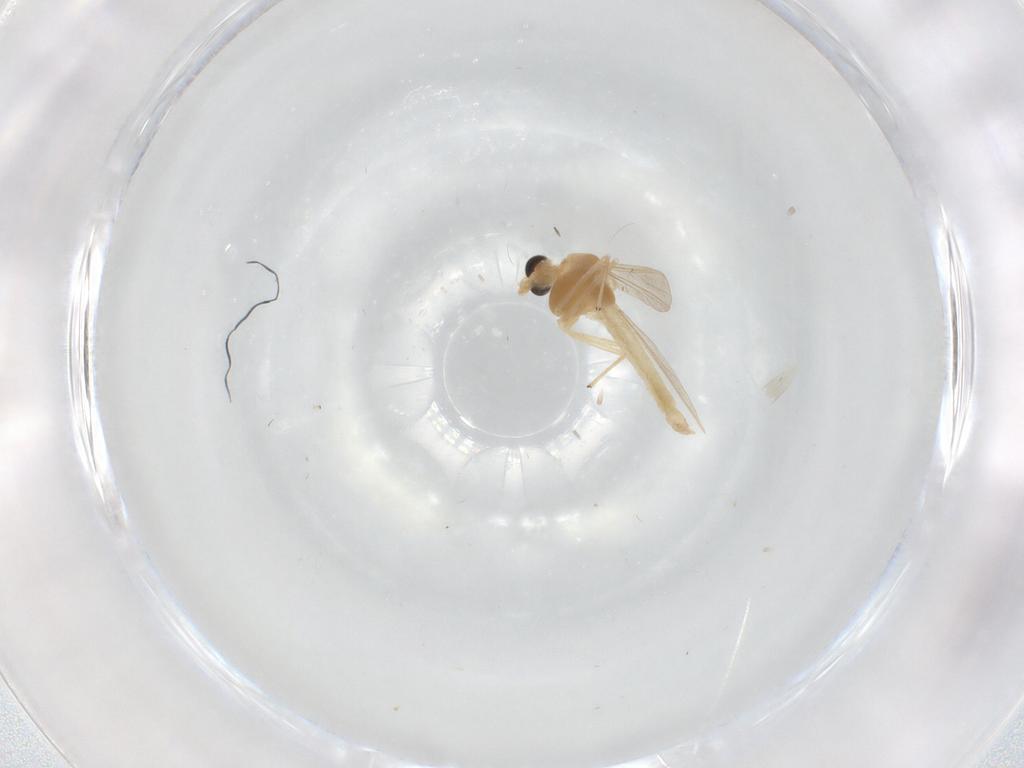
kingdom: Animalia
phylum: Arthropoda
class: Insecta
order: Diptera
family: Chironomidae
